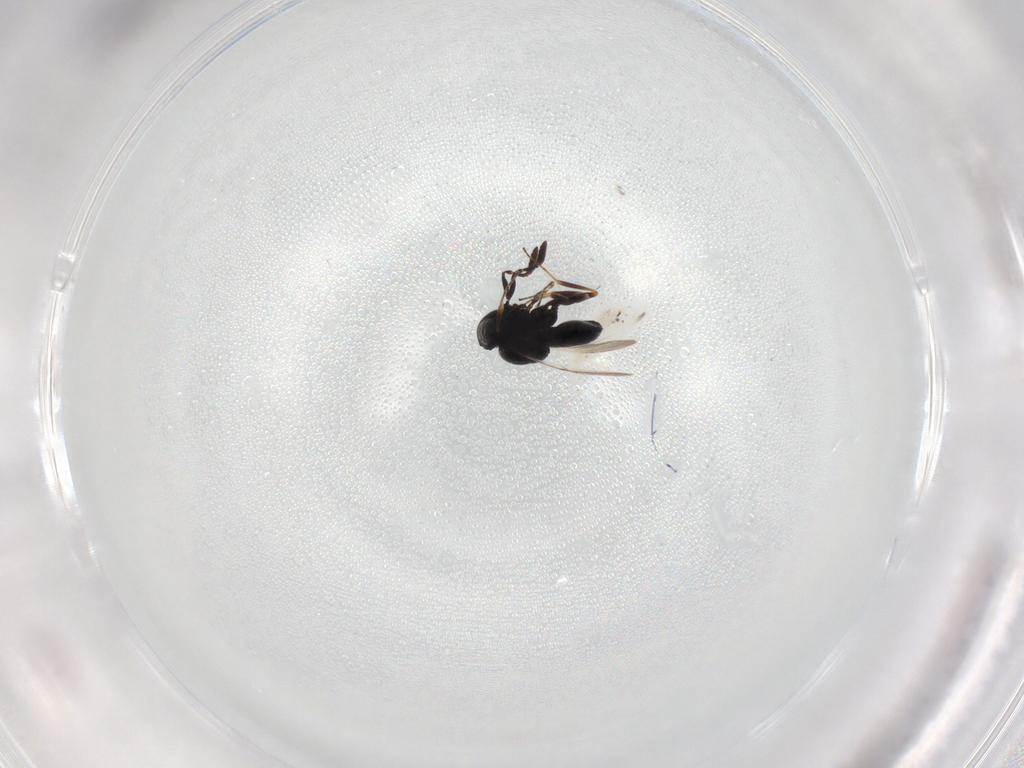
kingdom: Animalia
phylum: Arthropoda
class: Insecta
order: Hymenoptera
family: Scelionidae
